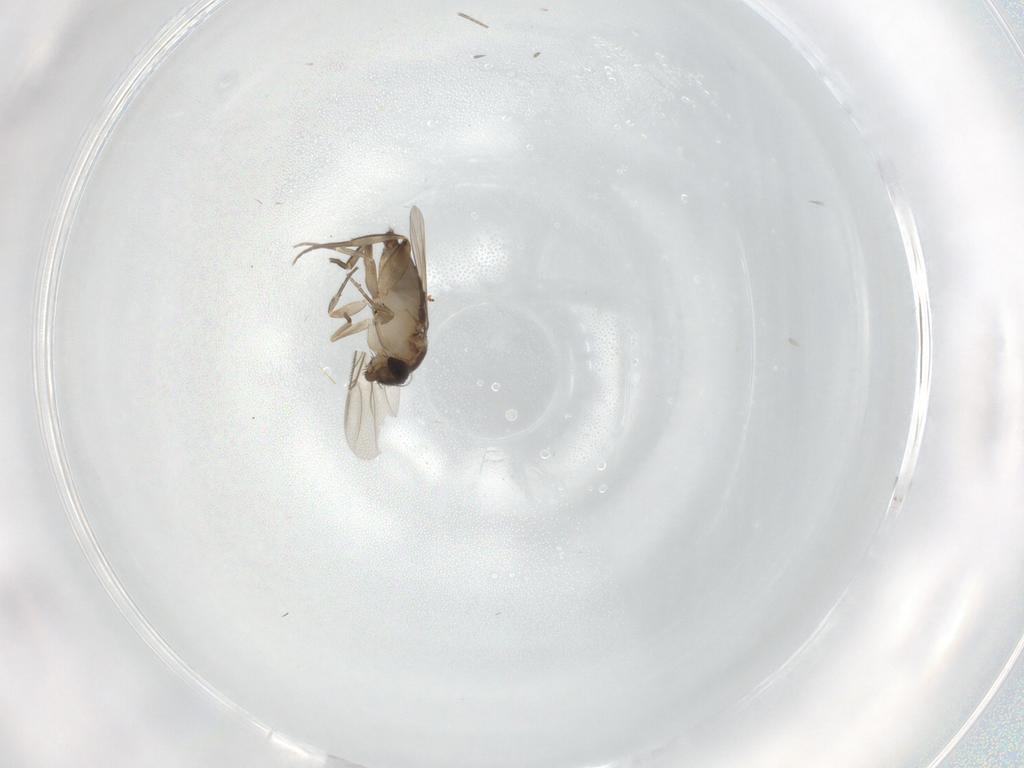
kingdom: Animalia
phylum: Arthropoda
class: Insecta
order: Diptera
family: Phoridae
